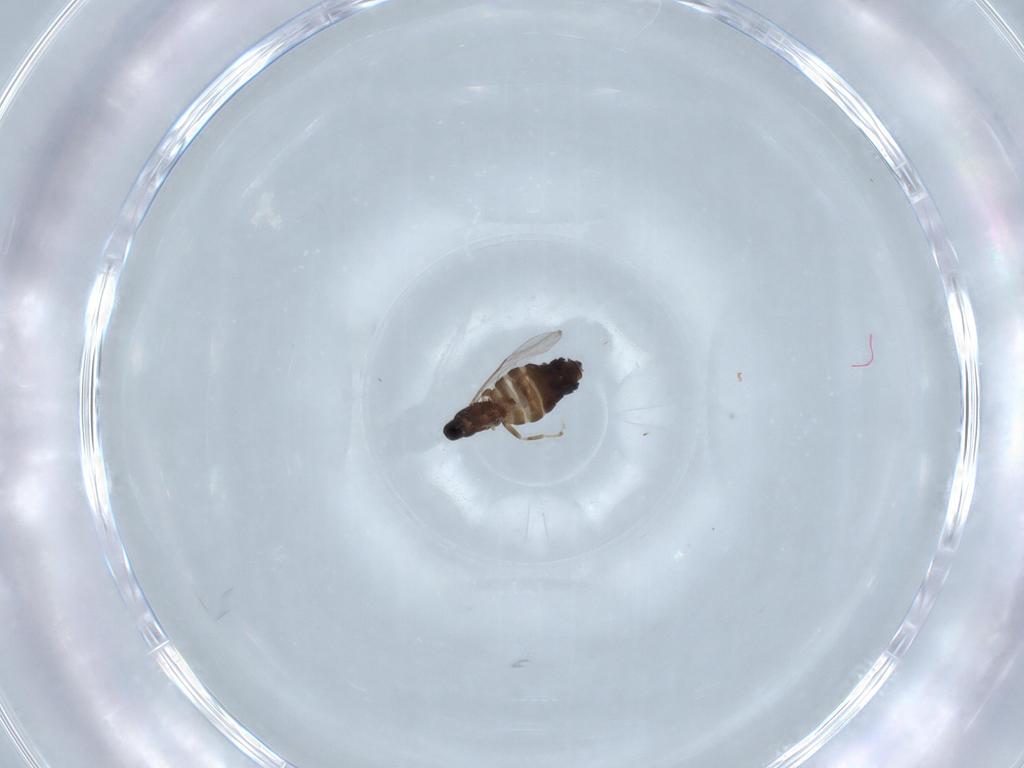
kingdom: Animalia
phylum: Arthropoda
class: Insecta
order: Diptera
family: Scatopsidae
